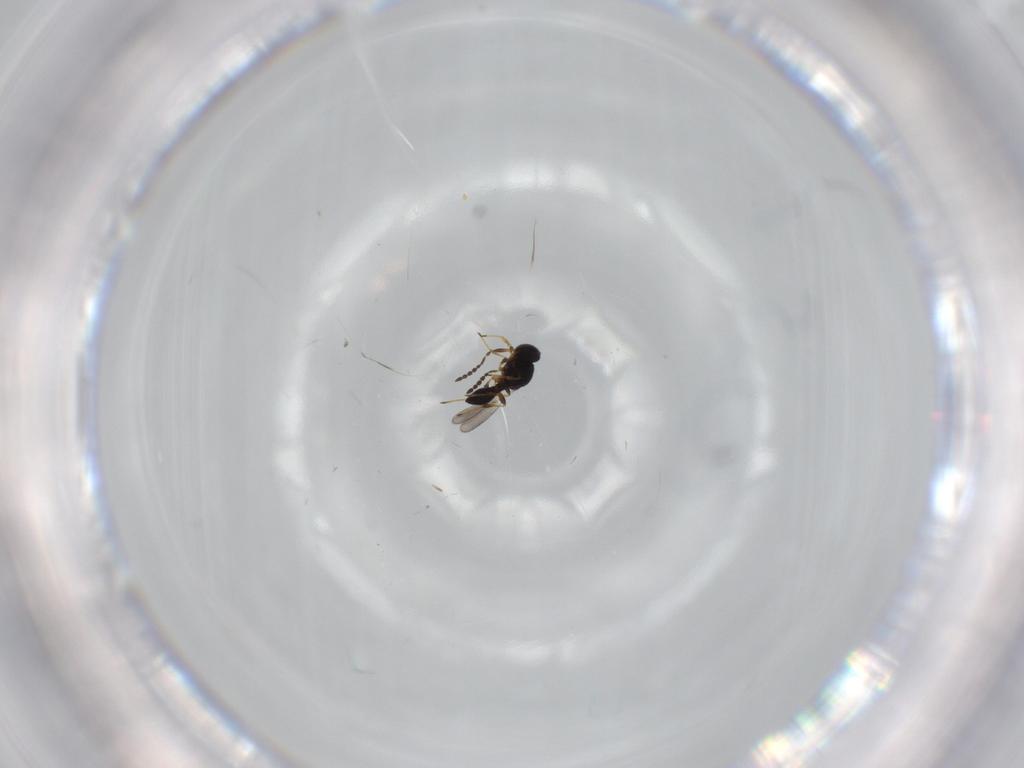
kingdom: Animalia
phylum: Arthropoda
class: Insecta
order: Hymenoptera
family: Platygastridae
